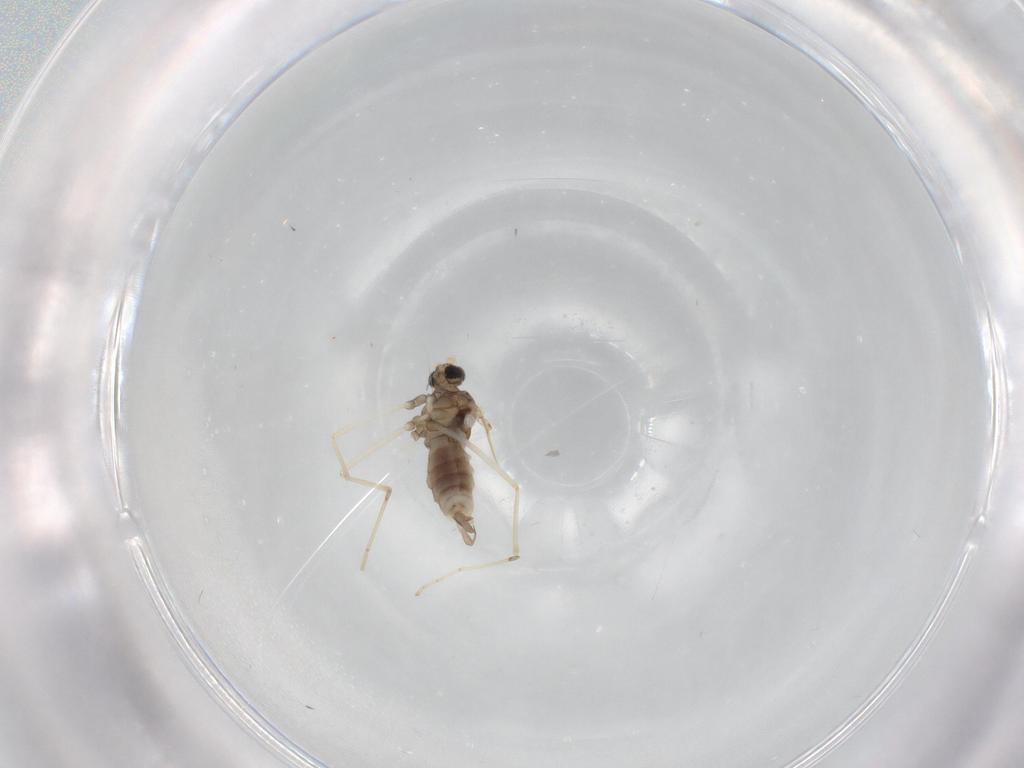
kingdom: Animalia
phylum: Arthropoda
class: Insecta
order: Diptera
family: Cecidomyiidae
